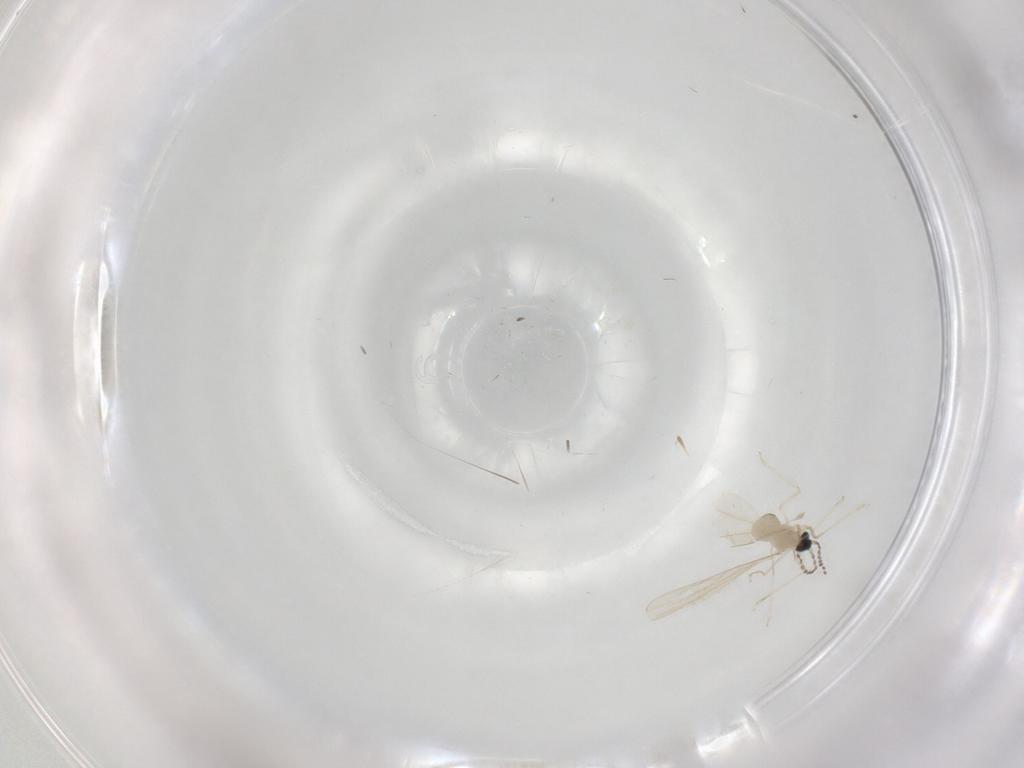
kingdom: Animalia
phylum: Arthropoda
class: Insecta
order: Diptera
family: Cecidomyiidae
